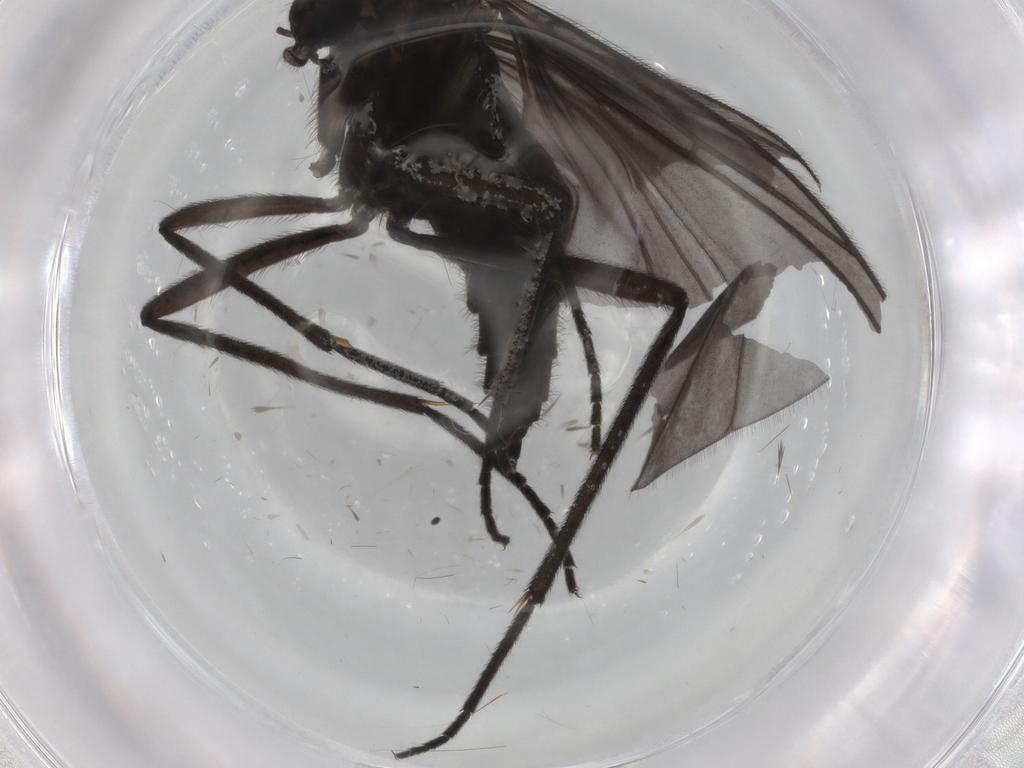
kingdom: Animalia
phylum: Arthropoda
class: Insecta
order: Diptera
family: Sciaridae
